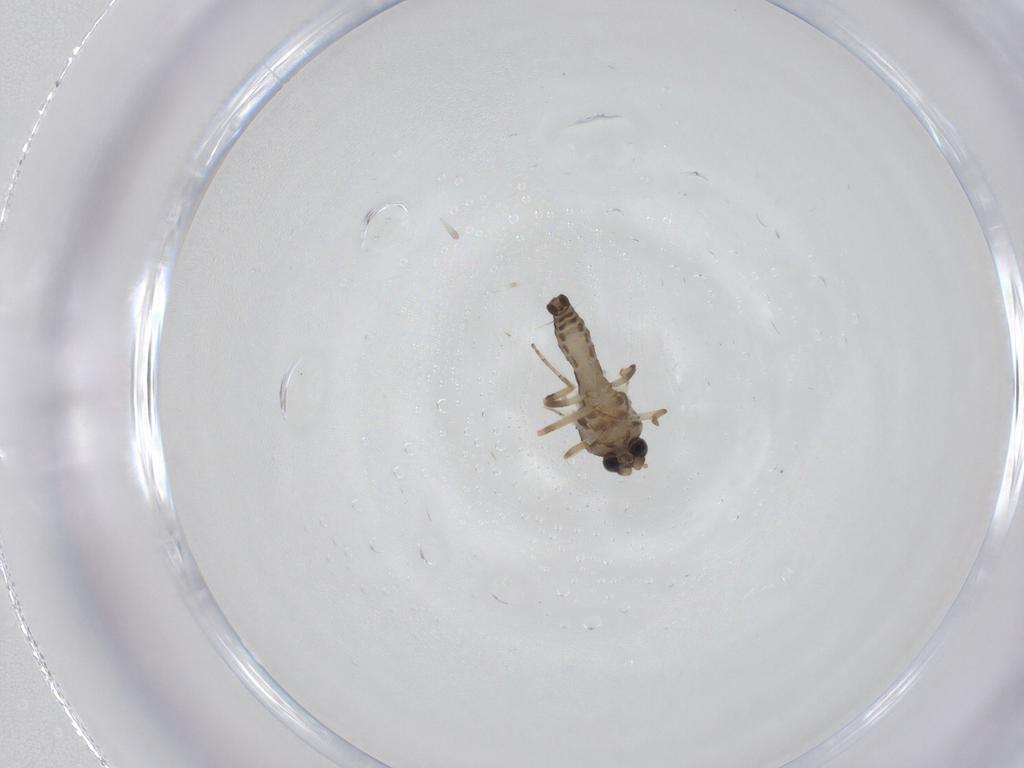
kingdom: Animalia
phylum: Arthropoda
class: Insecta
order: Diptera
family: Ceratopogonidae
